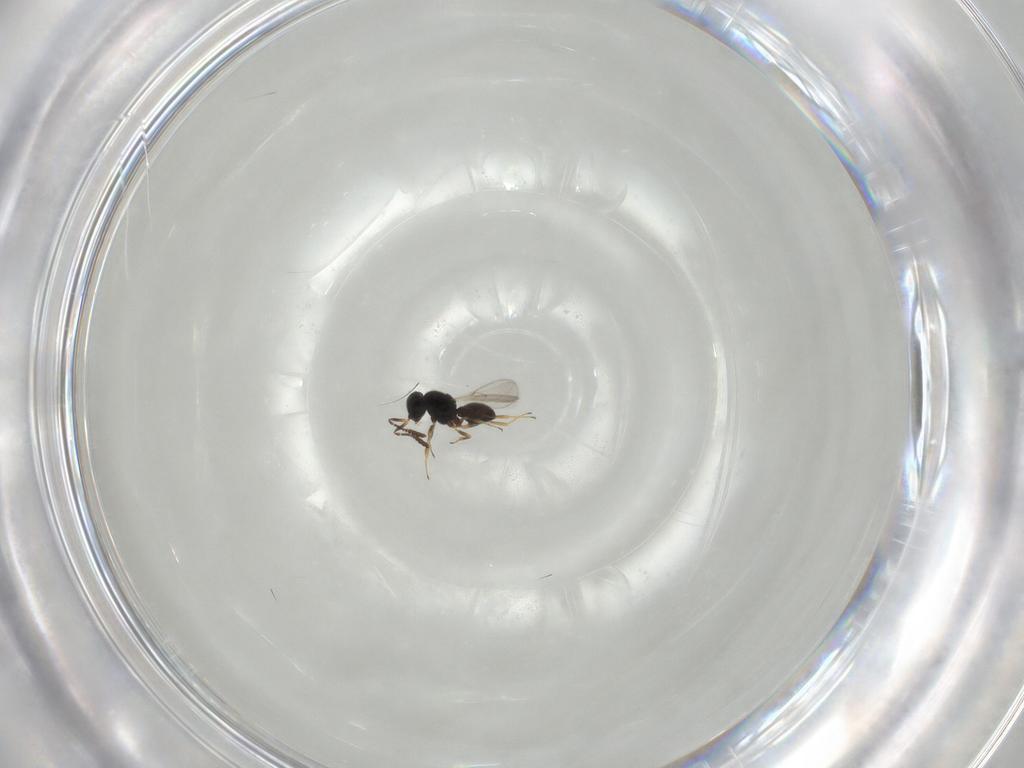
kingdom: Animalia
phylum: Arthropoda
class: Insecta
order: Hymenoptera
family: Scelionidae
